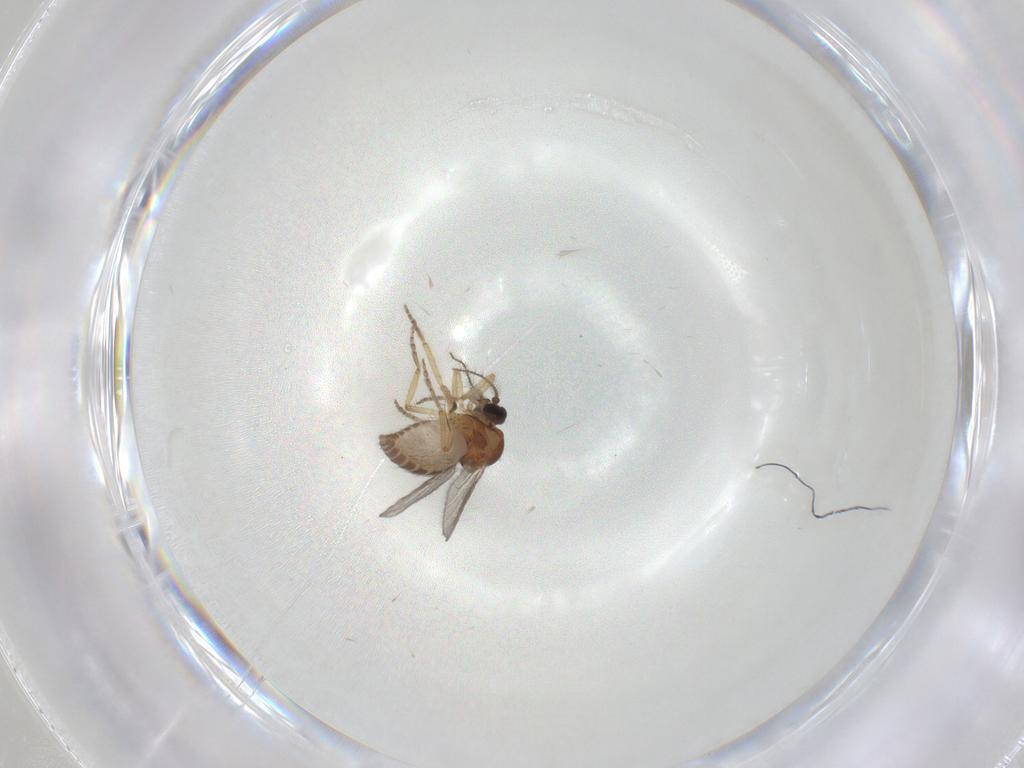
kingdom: Animalia
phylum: Arthropoda
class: Insecta
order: Diptera
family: Ceratopogonidae
